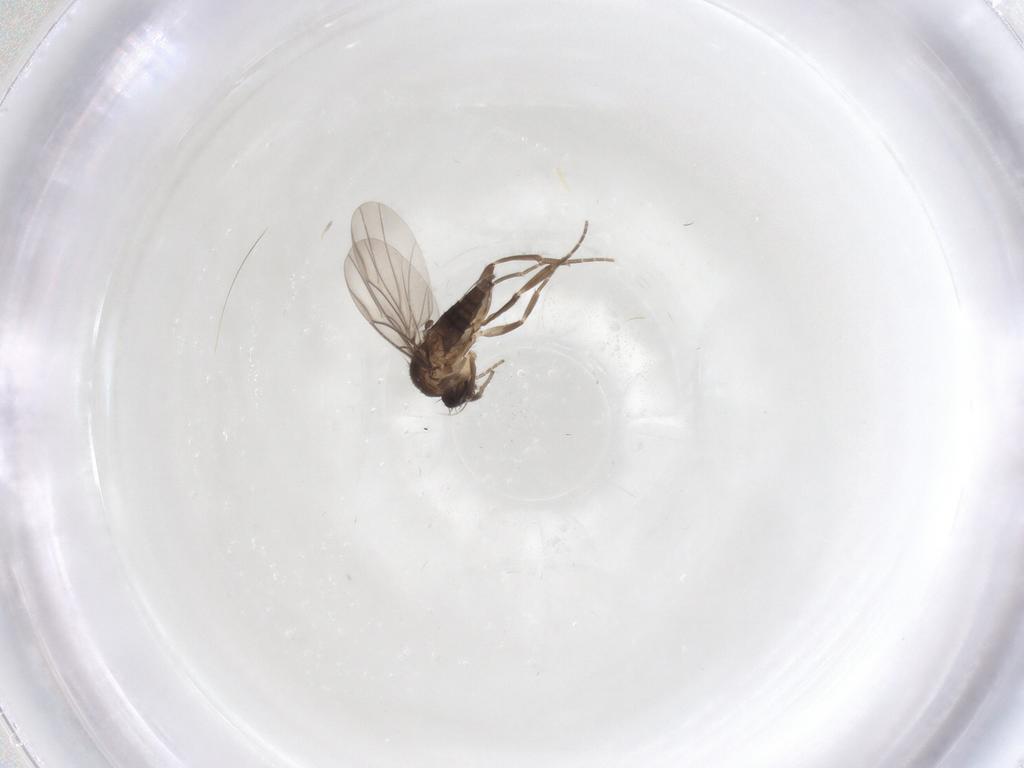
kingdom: Animalia
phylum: Arthropoda
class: Insecta
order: Diptera
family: Phoridae
